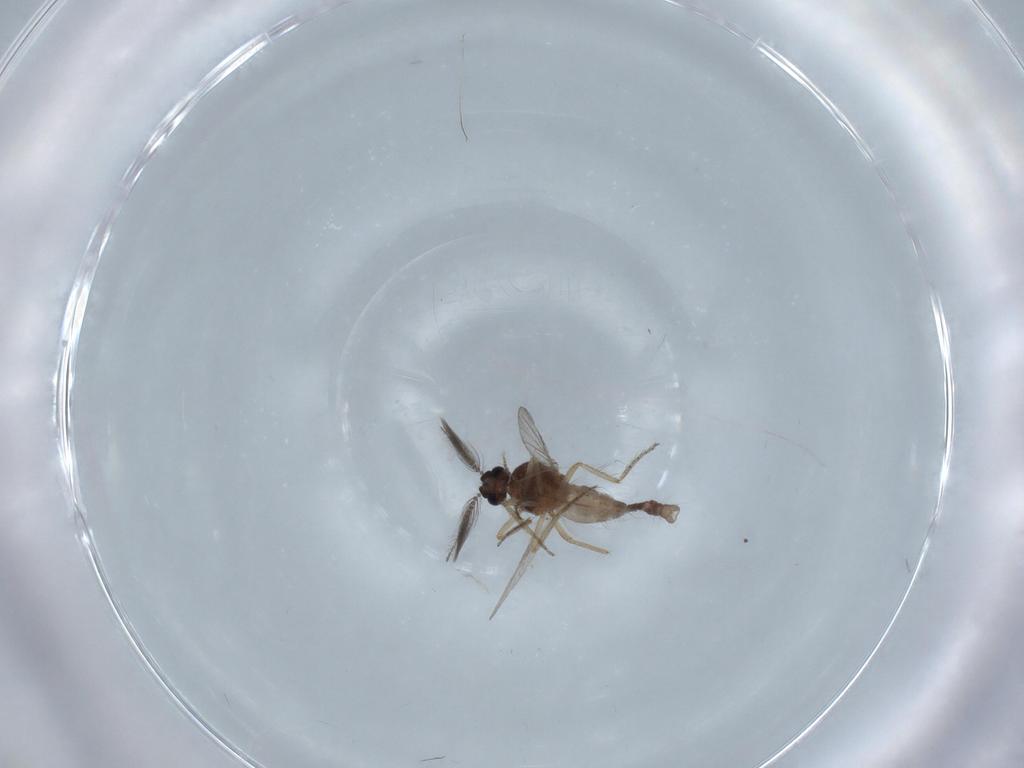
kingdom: Animalia
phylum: Arthropoda
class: Insecta
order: Diptera
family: Ceratopogonidae
